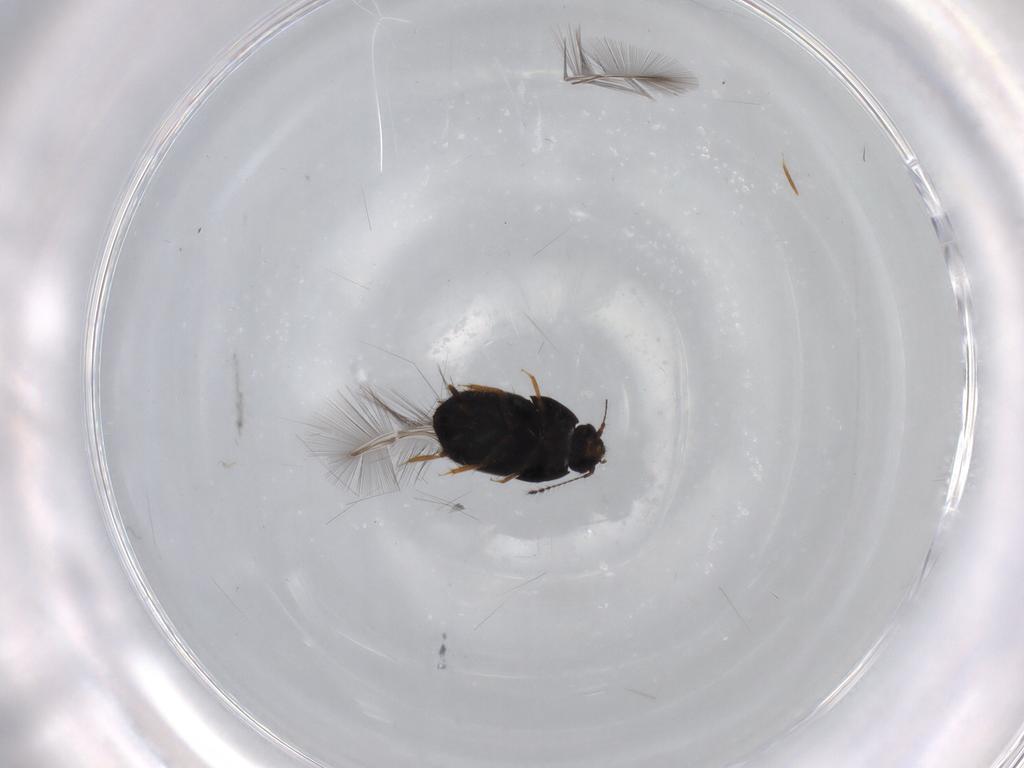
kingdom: Animalia
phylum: Arthropoda
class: Insecta
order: Coleoptera
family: Ptiliidae
